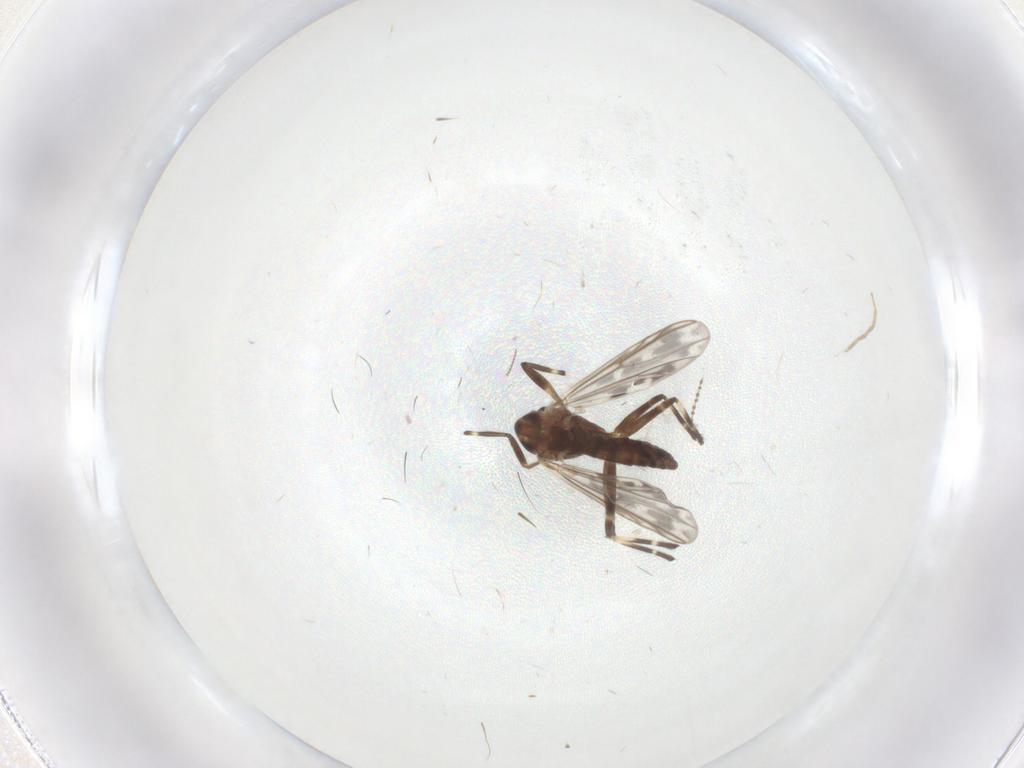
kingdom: Animalia
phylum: Arthropoda
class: Insecta
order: Diptera
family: Chironomidae
